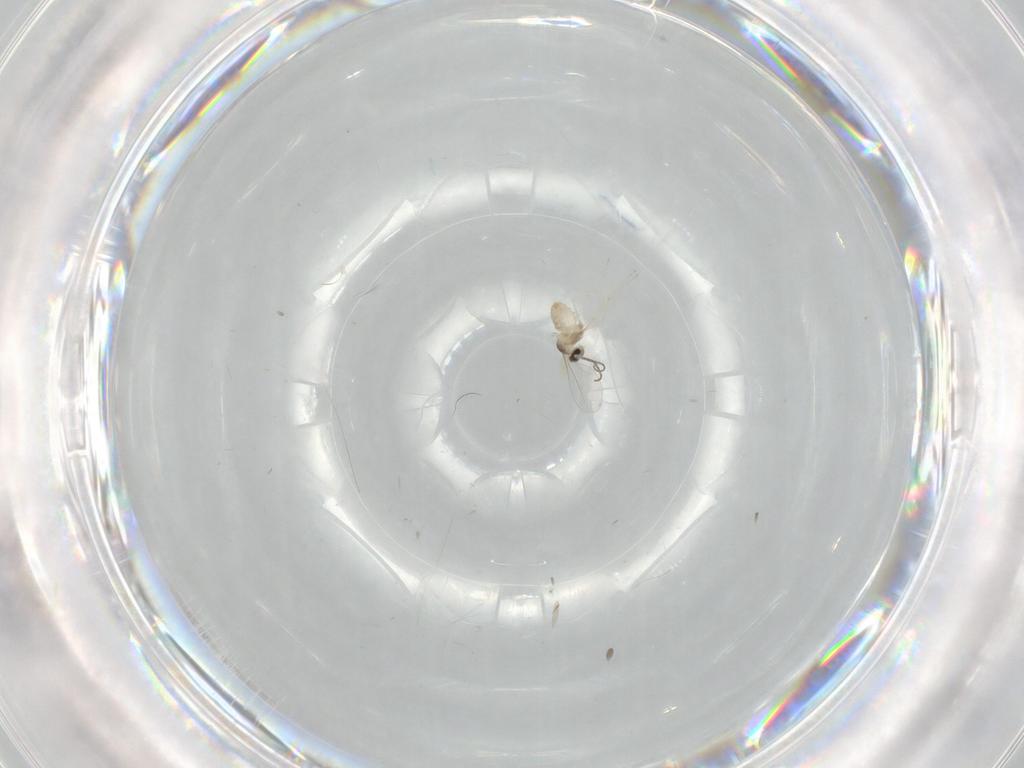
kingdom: Animalia
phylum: Arthropoda
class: Insecta
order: Diptera
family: Cecidomyiidae
